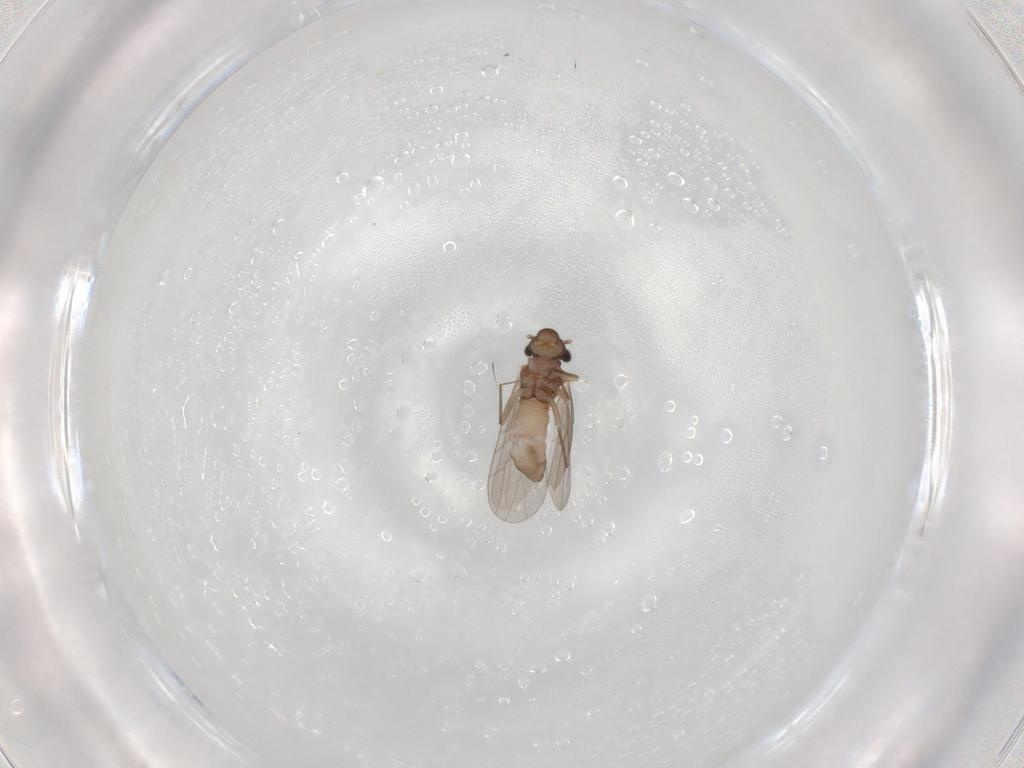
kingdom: Animalia
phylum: Arthropoda
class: Insecta
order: Psocodea
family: Lepidopsocidae
